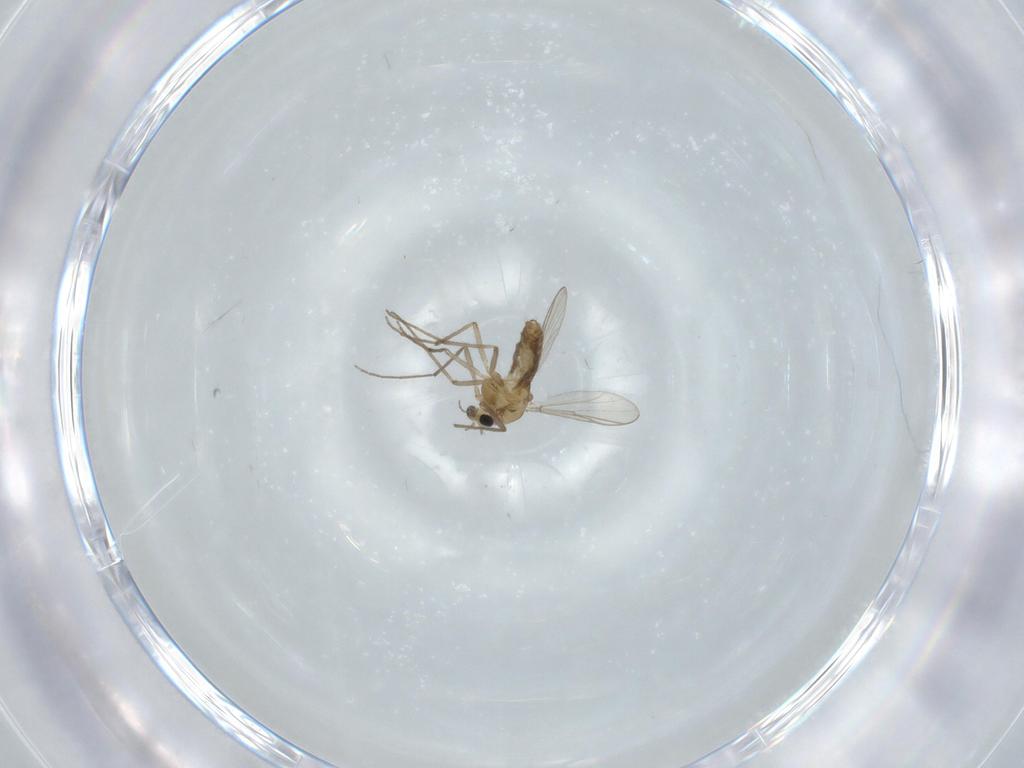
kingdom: Animalia
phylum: Arthropoda
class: Insecta
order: Diptera
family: Chironomidae
